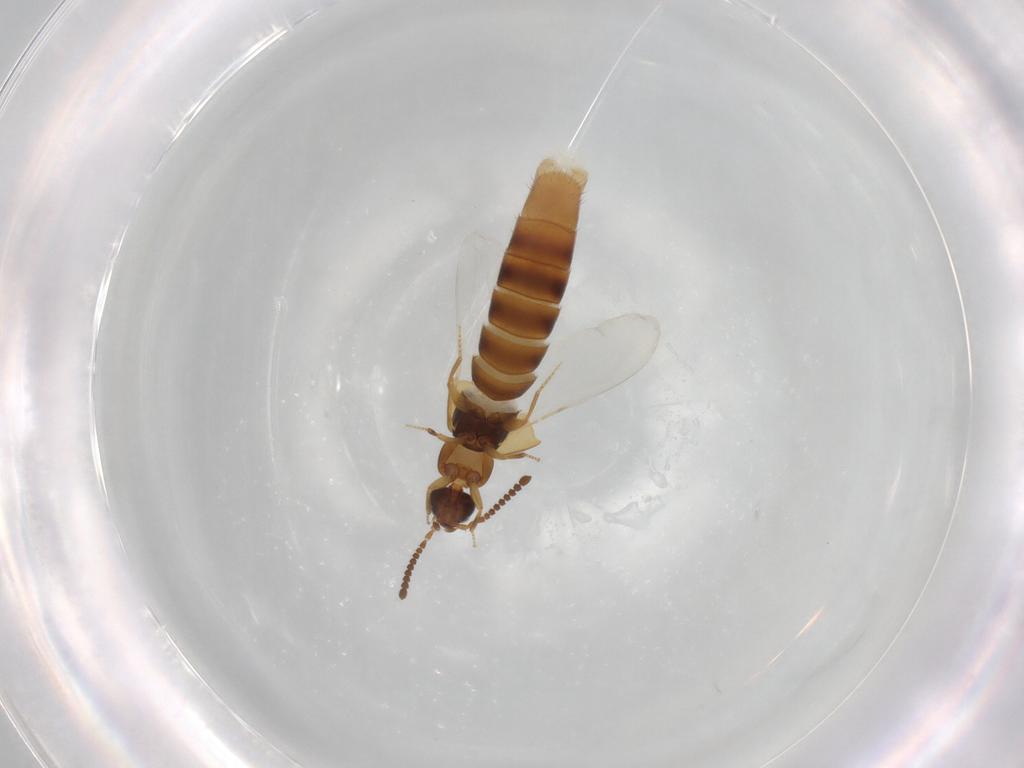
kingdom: Animalia
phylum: Arthropoda
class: Insecta
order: Coleoptera
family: Staphylinidae
